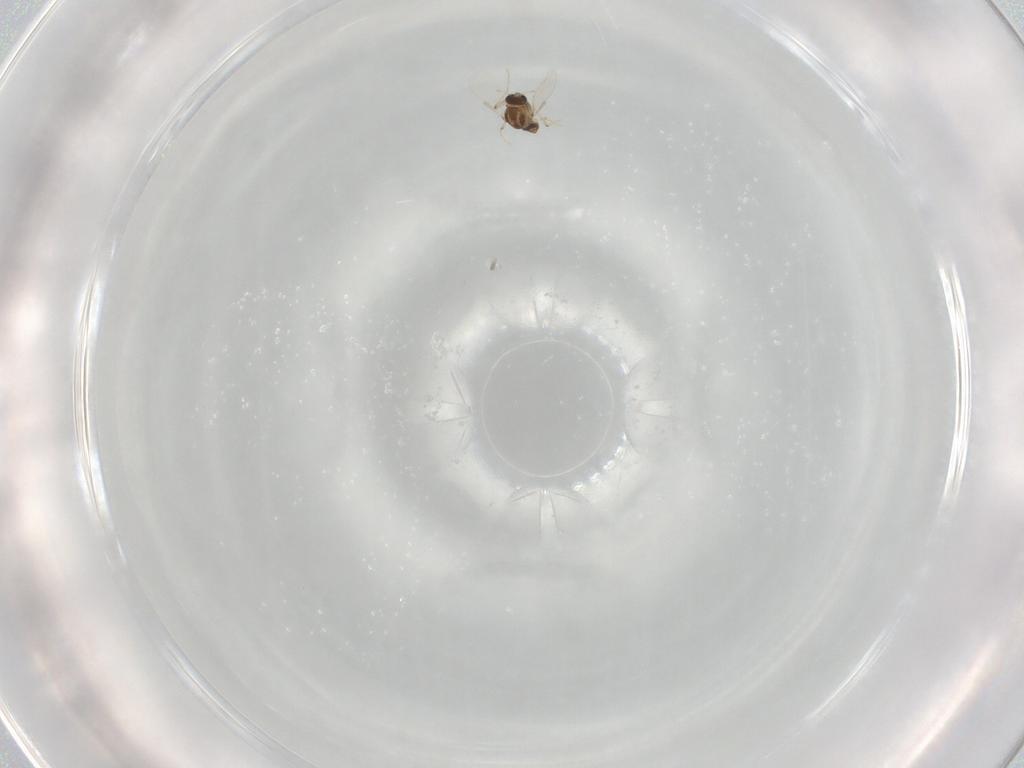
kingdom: Animalia
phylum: Arthropoda
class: Insecta
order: Diptera
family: Chironomidae
